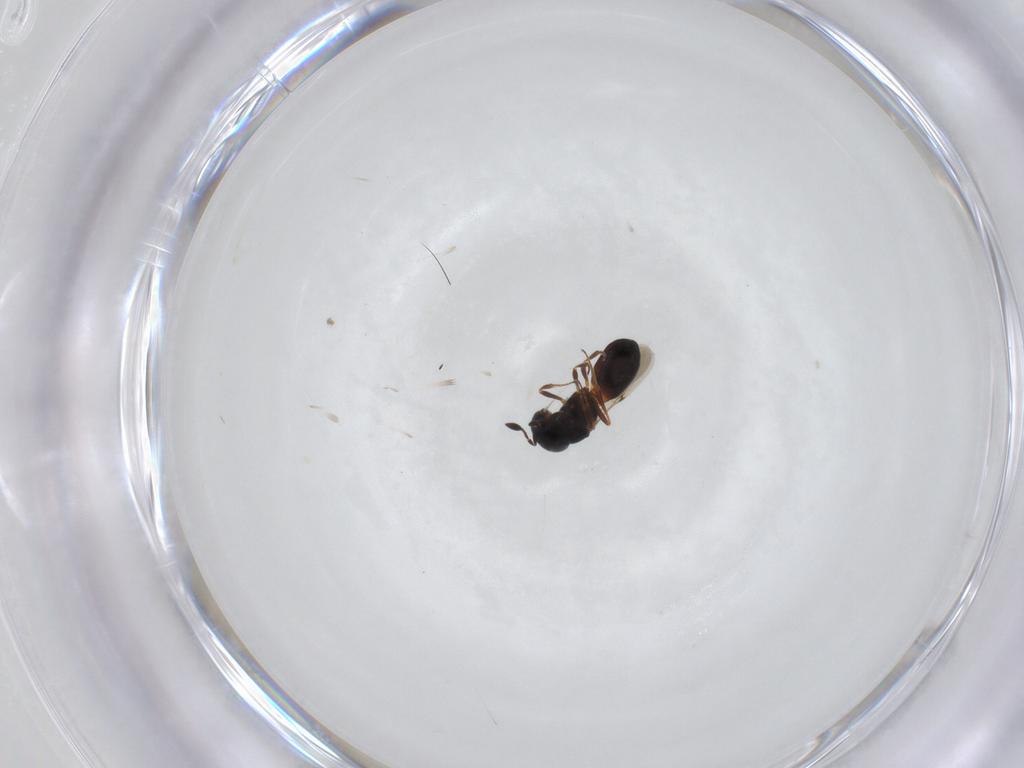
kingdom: Animalia
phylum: Arthropoda
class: Insecta
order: Hymenoptera
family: Scelionidae
